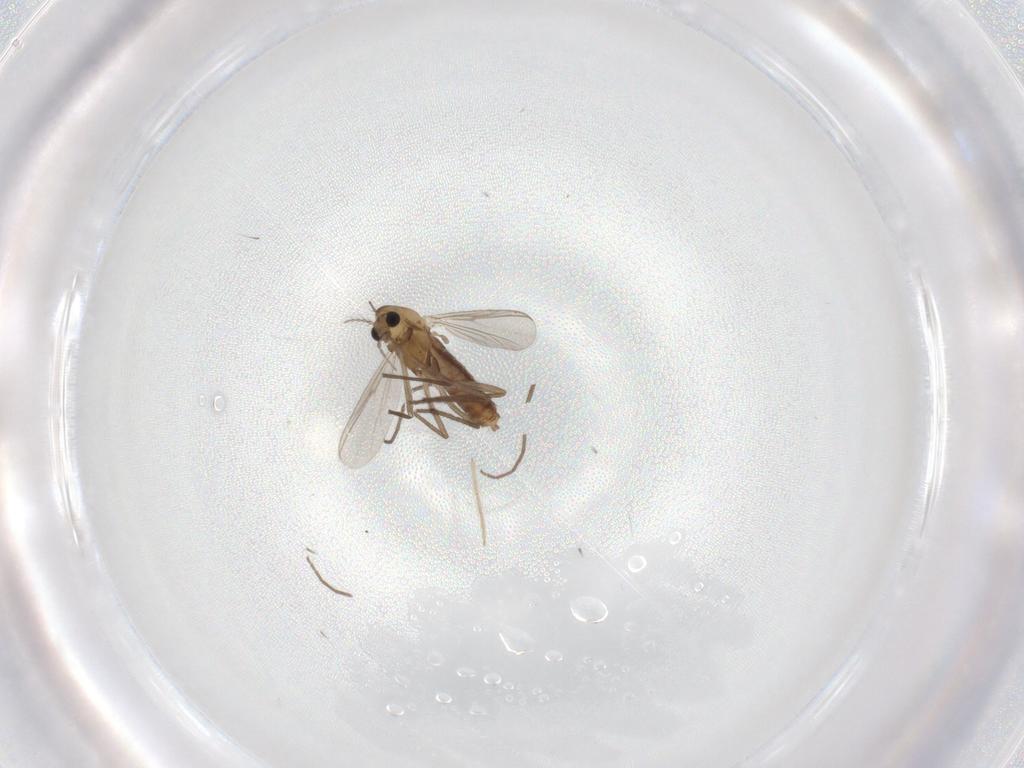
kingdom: Animalia
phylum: Arthropoda
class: Insecta
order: Diptera
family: Chironomidae
